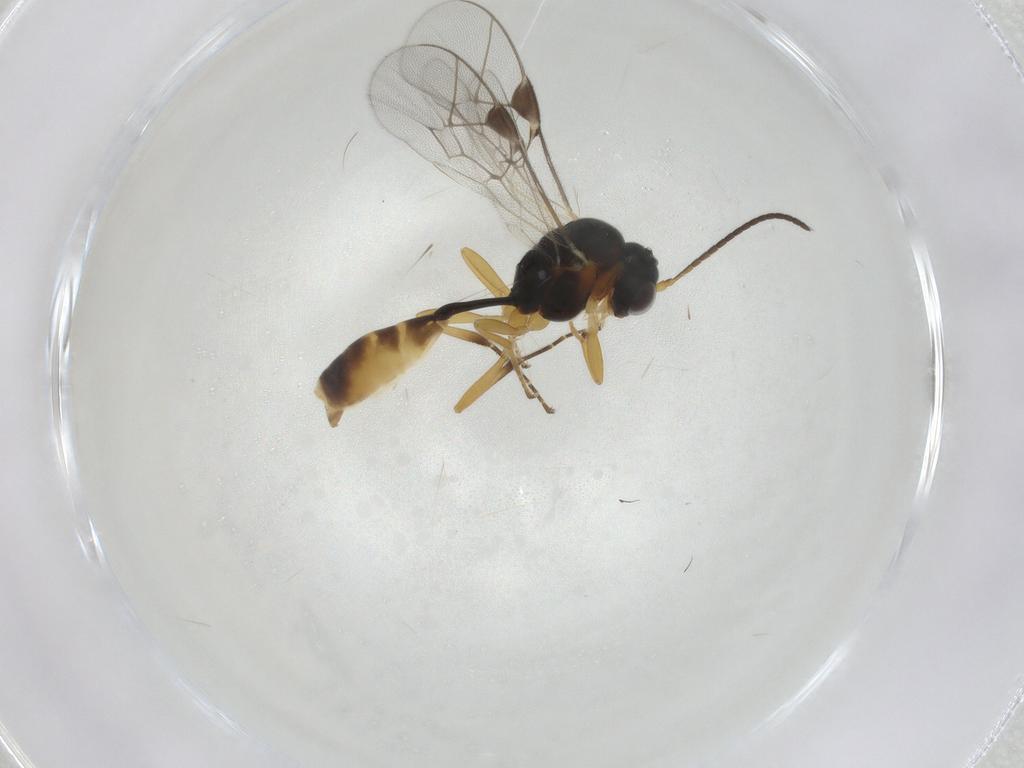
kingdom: Animalia
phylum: Arthropoda
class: Insecta
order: Hymenoptera
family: Ichneumonidae
